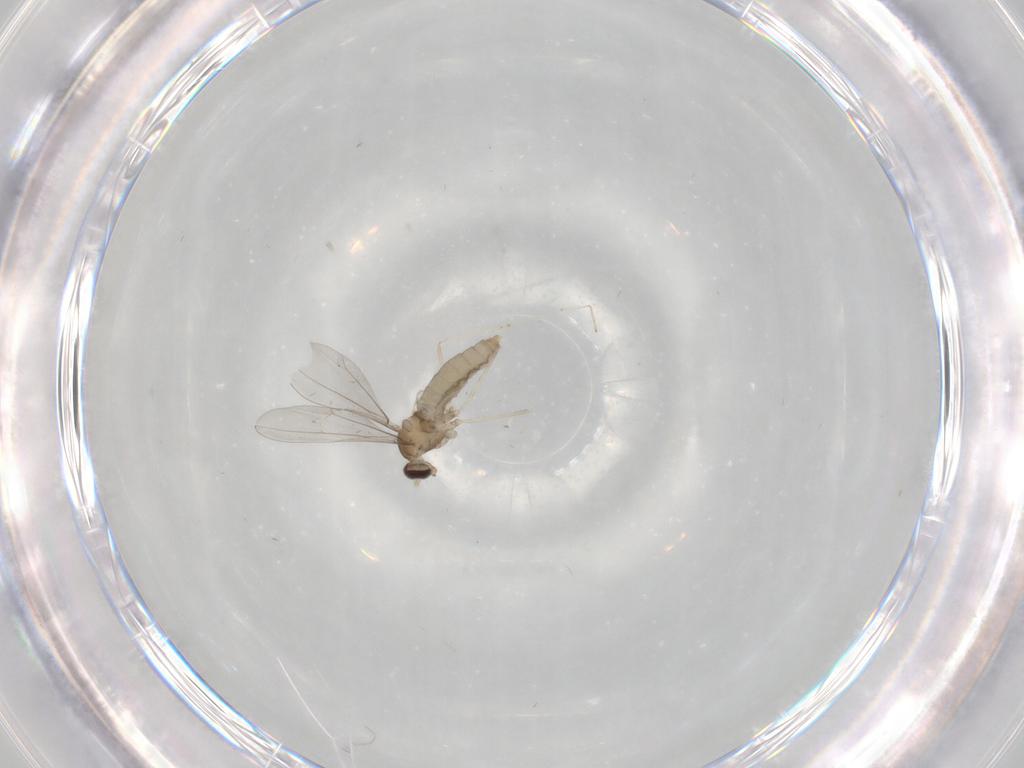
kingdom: Animalia
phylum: Arthropoda
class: Insecta
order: Diptera
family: Cecidomyiidae
